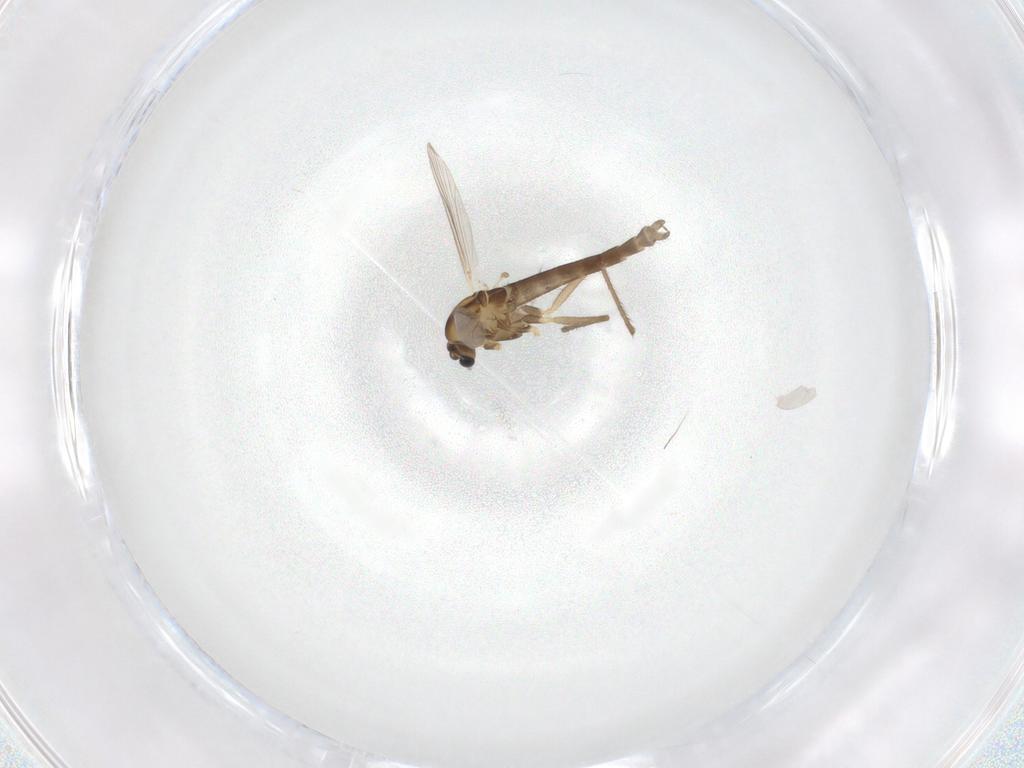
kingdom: Animalia
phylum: Arthropoda
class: Insecta
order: Diptera
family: Chironomidae
